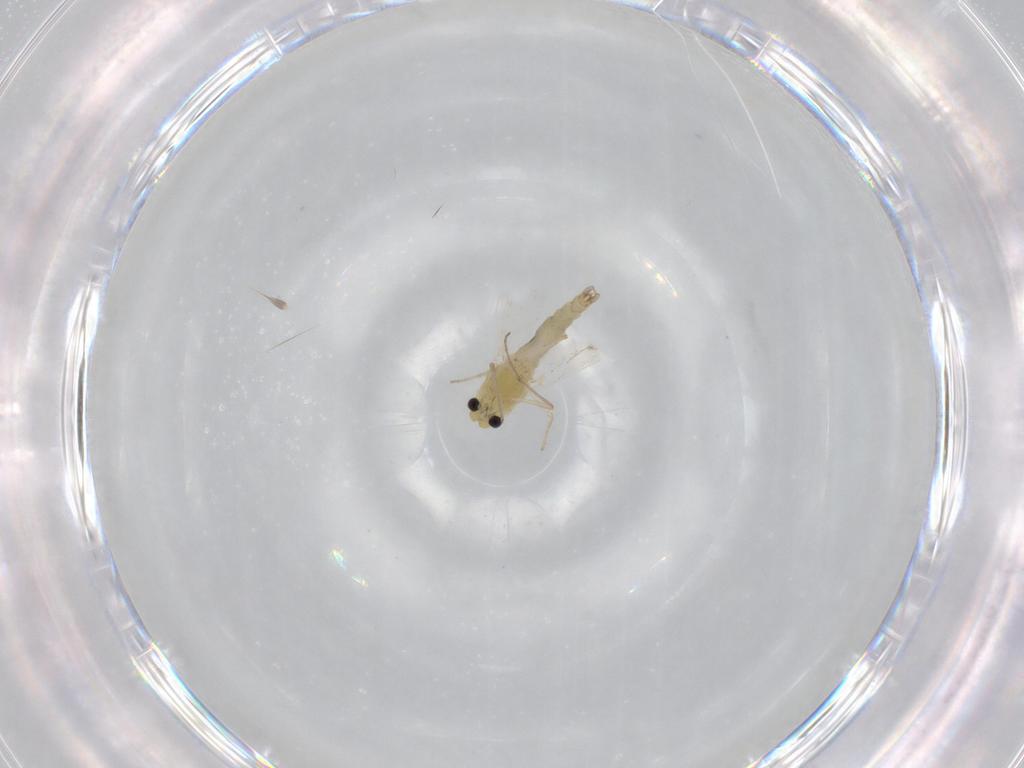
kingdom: Animalia
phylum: Arthropoda
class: Insecta
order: Diptera
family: Chironomidae
